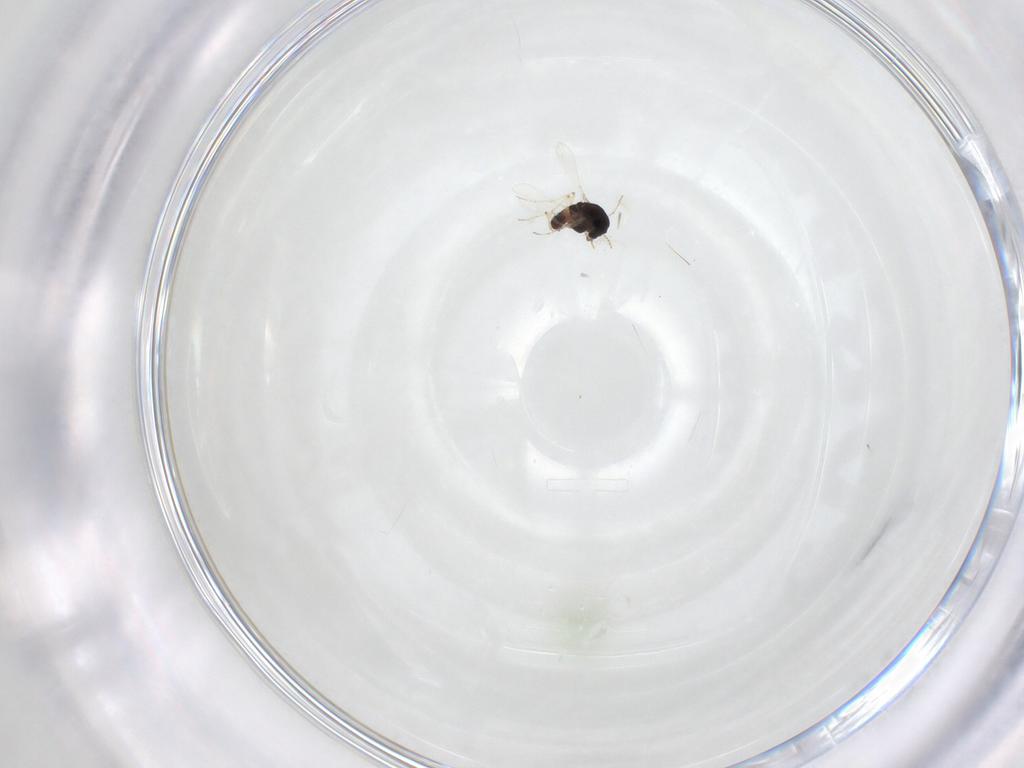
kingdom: Animalia
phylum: Arthropoda
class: Insecta
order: Diptera
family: Chironomidae
